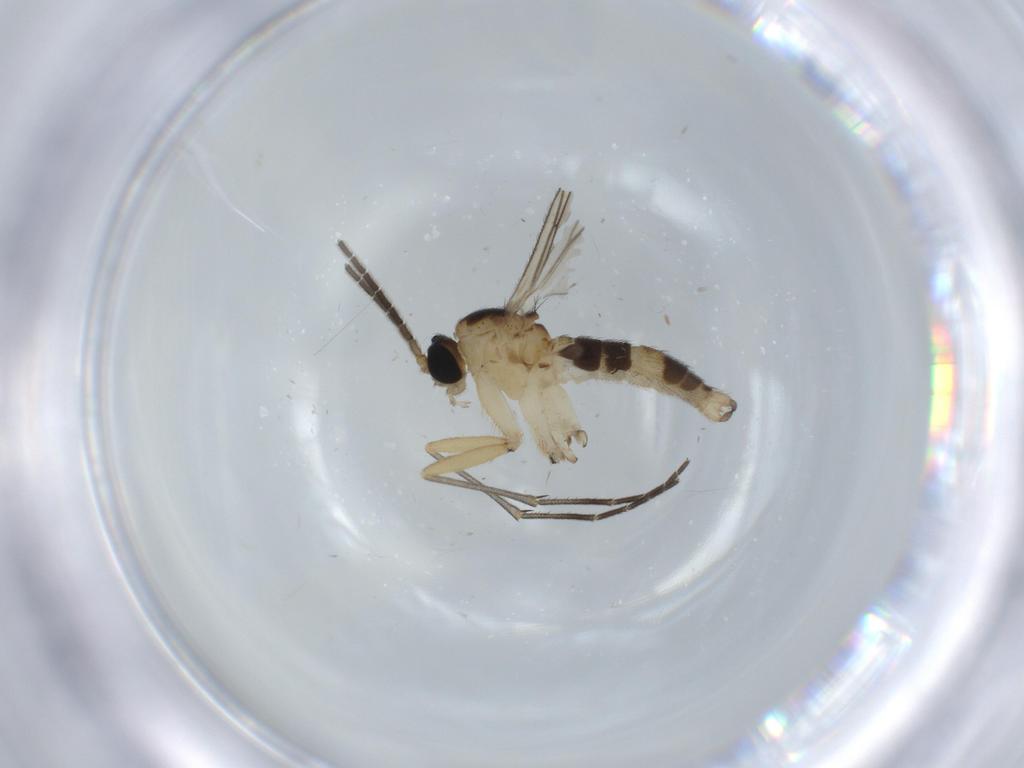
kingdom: Animalia
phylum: Arthropoda
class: Insecta
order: Diptera
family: Sciaridae
